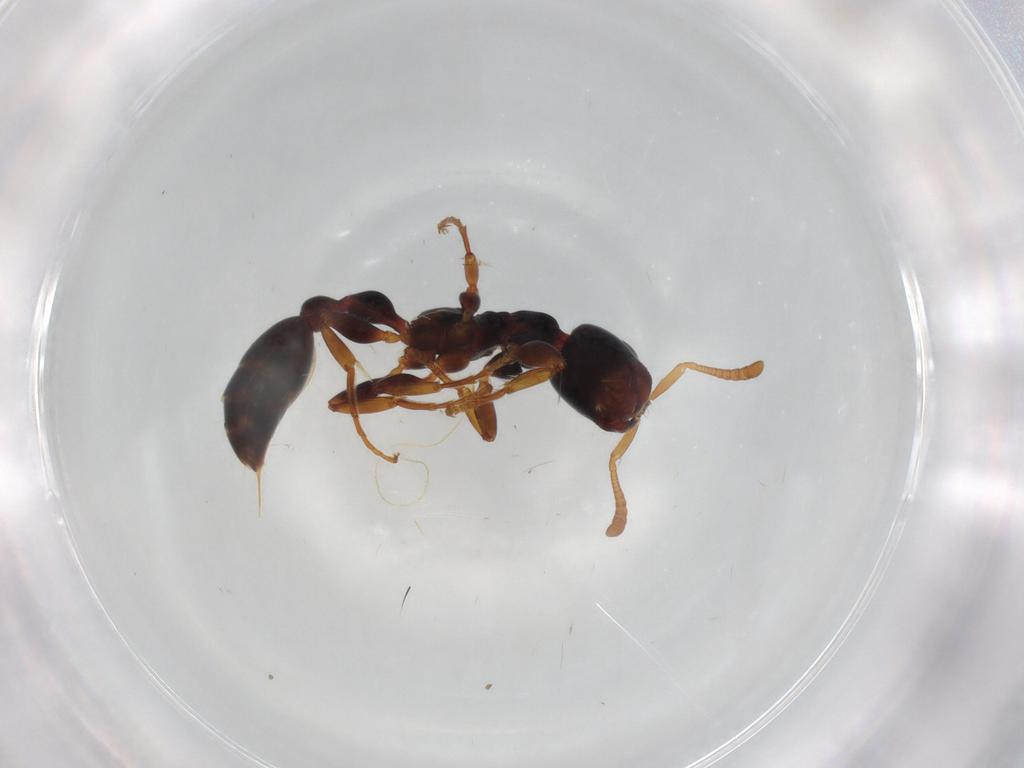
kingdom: Animalia
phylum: Arthropoda
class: Insecta
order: Hymenoptera
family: Formicidae
